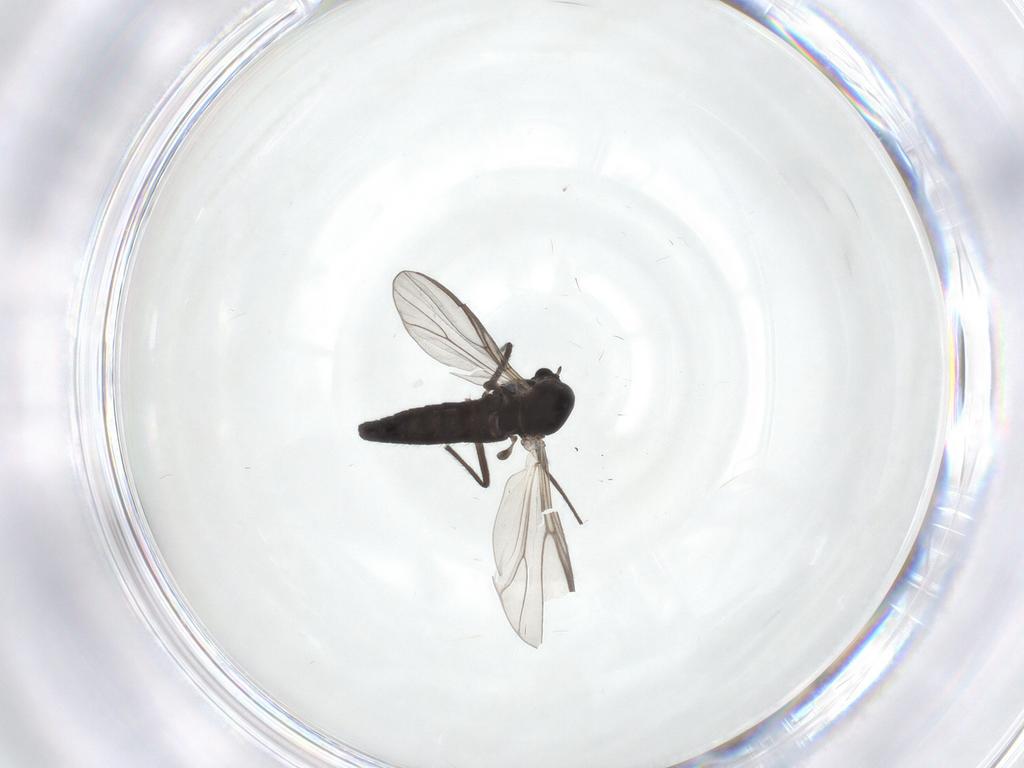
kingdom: Animalia
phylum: Arthropoda
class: Insecta
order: Diptera
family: Chironomidae
